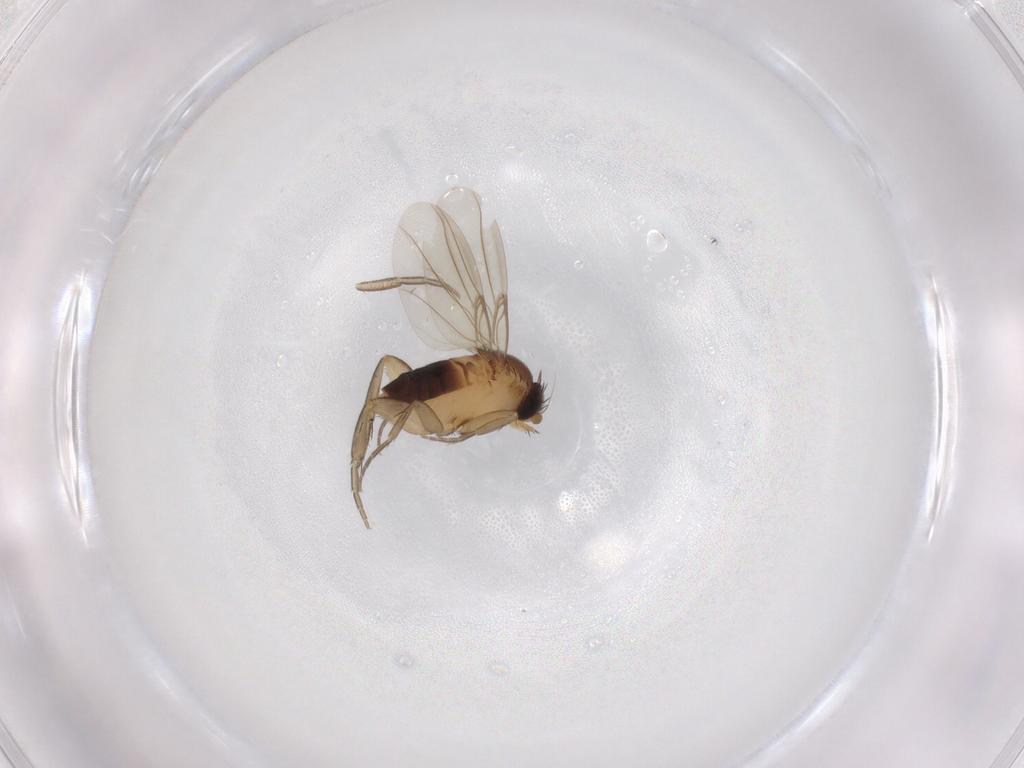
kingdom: Animalia
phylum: Arthropoda
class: Insecta
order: Diptera
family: Phoridae
